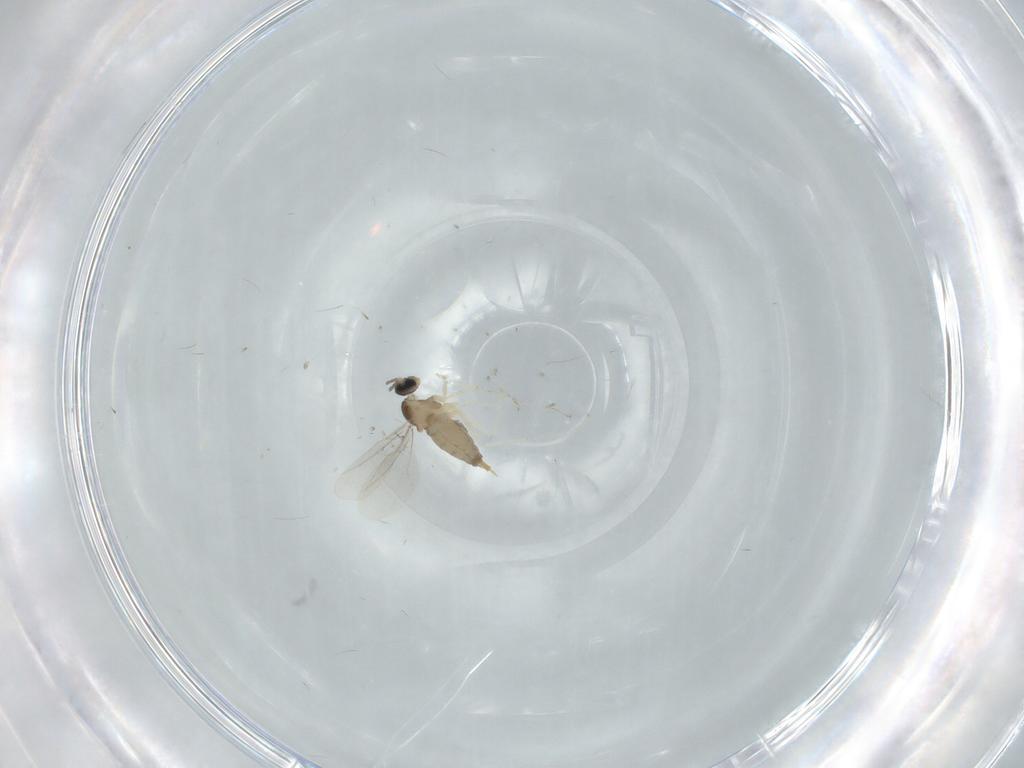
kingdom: Animalia
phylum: Arthropoda
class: Insecta
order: Diptera
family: Cecidomyiidae
